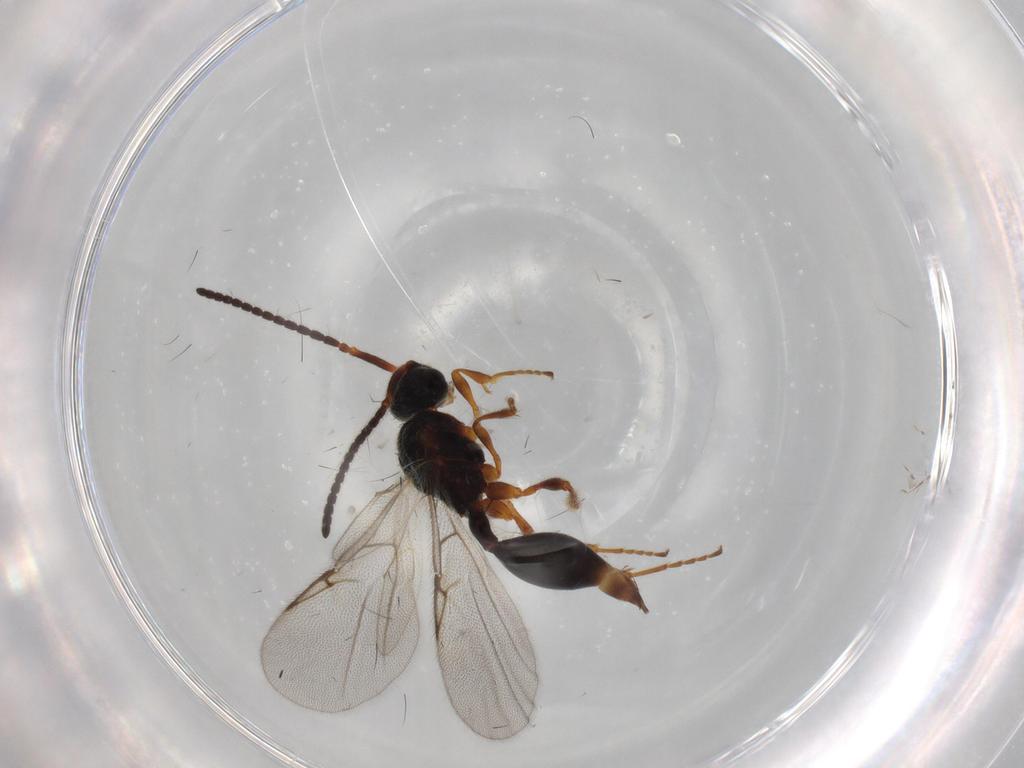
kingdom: Animalia
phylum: Arthropoda
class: Insecta
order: Hymenoptera
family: Diapriidae
